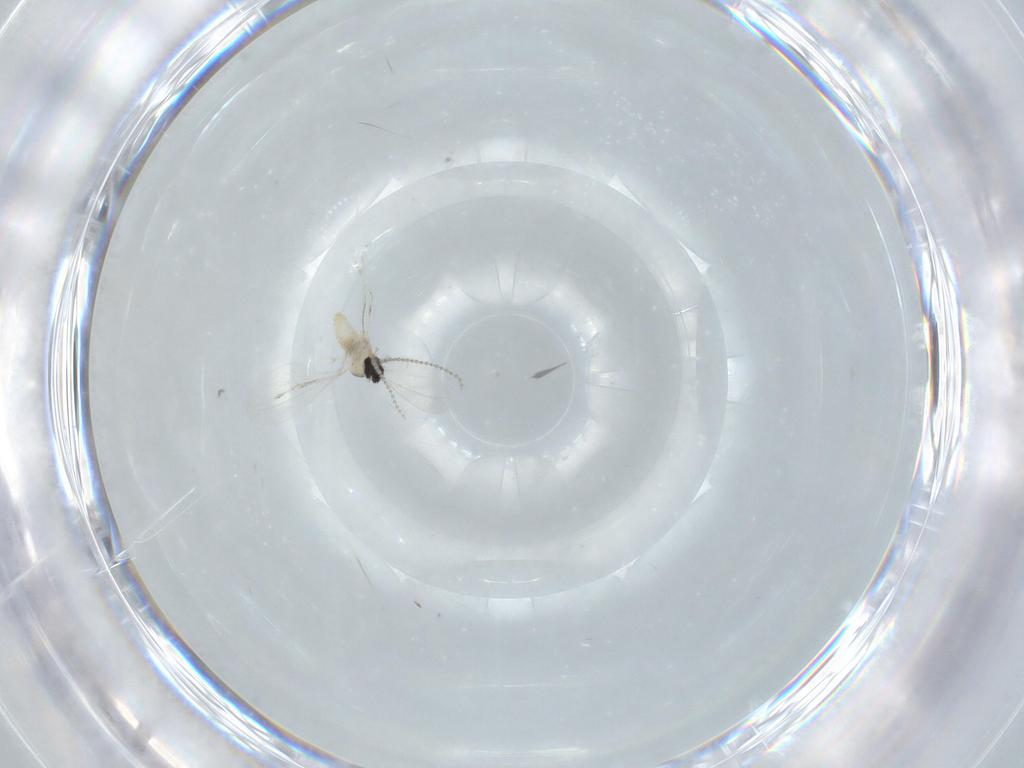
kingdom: Animalia
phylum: Arthropoda
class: Insecta
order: Diptera
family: Cecidomyiidae
